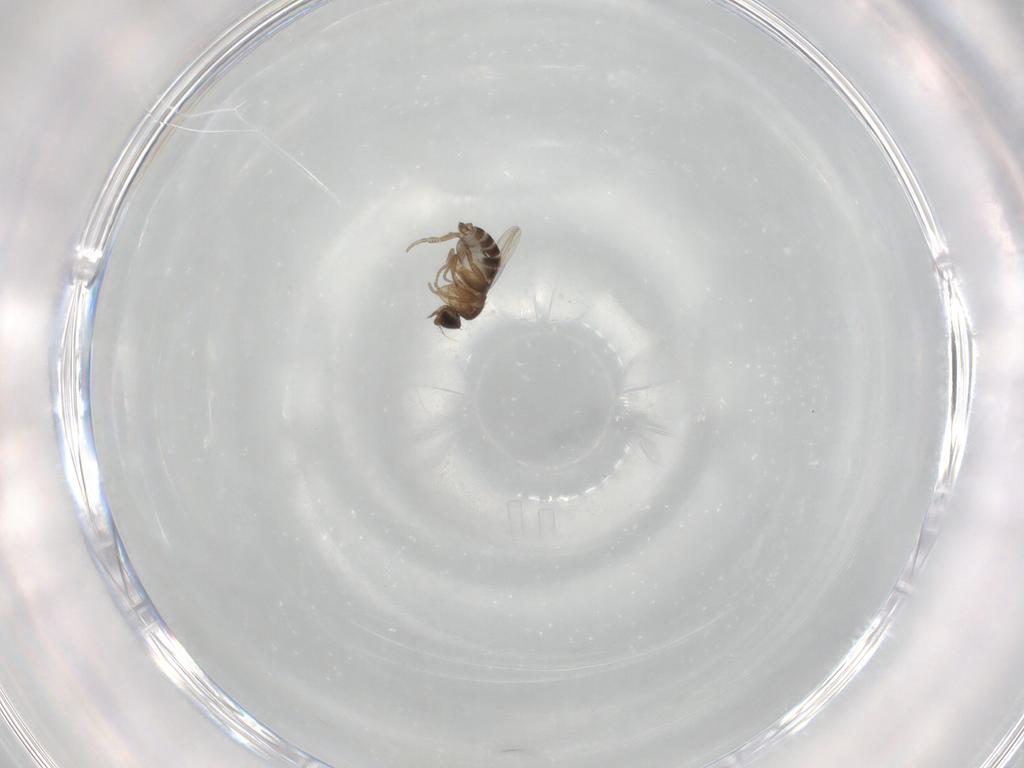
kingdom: Animalia
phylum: Arthropoda
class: Insecta
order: Diptera
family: Phoridae
